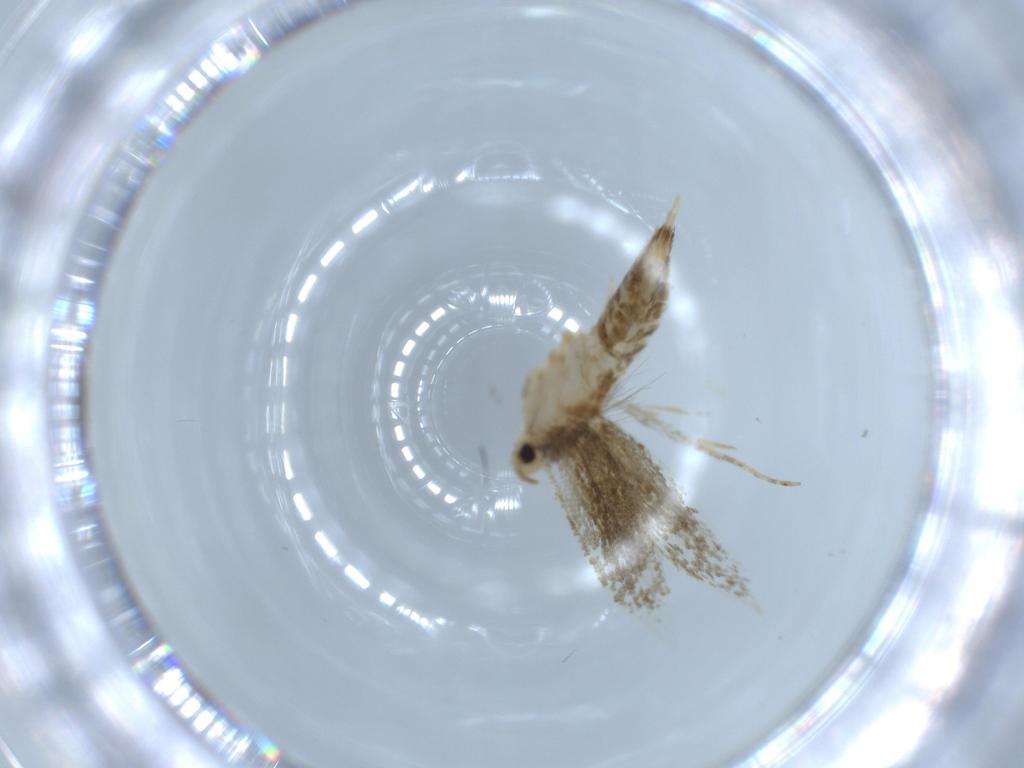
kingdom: Animalia
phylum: Arthropoda
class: Insecta
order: Lepidoptera
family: Tineidae
